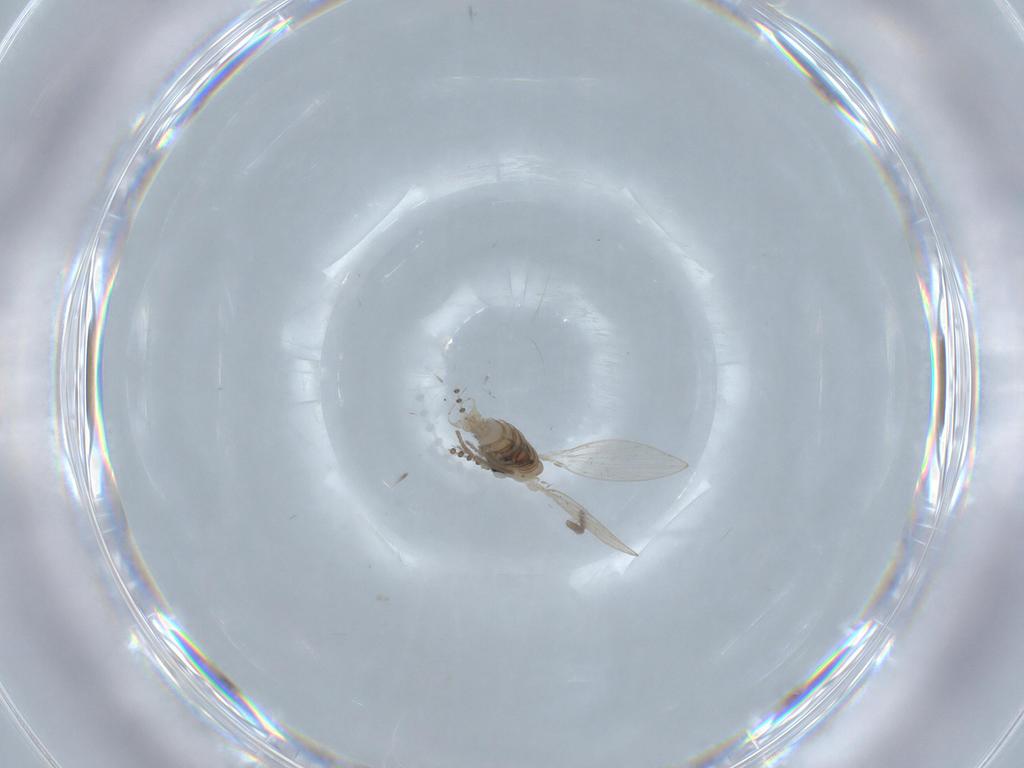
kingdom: Animalia
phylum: Arthropoda
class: Insecta
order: Diptera
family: Psychodidae
